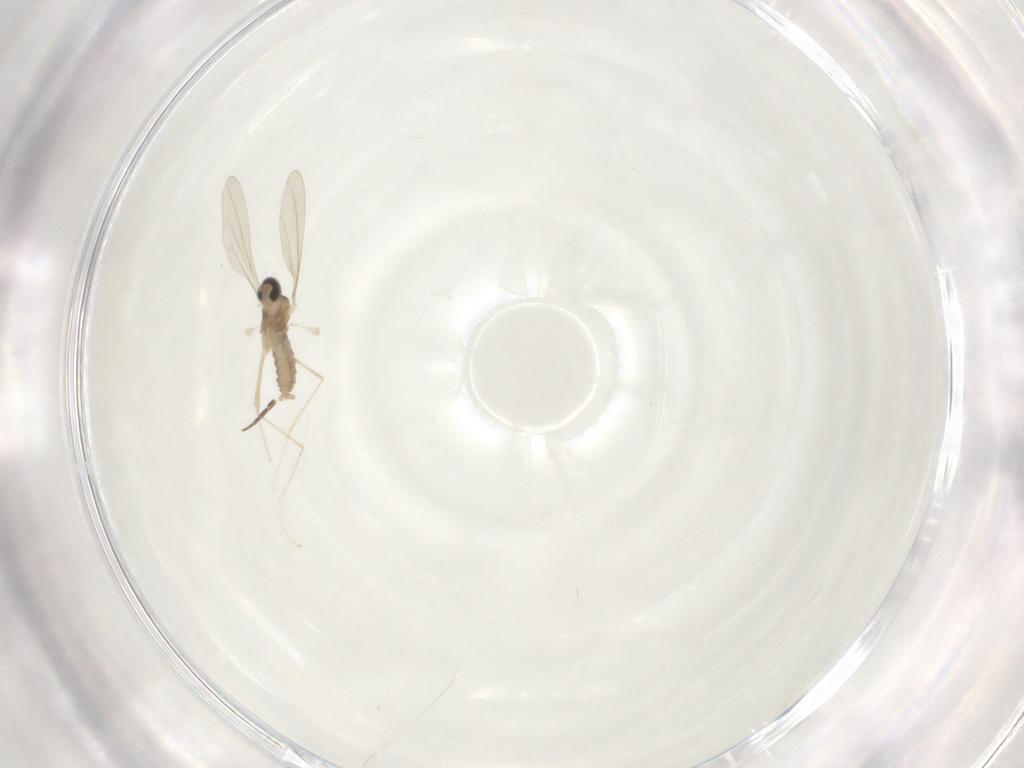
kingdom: Animalia
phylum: Arthropoda
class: Insecta
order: Diptera
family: Cecidomyiidae
